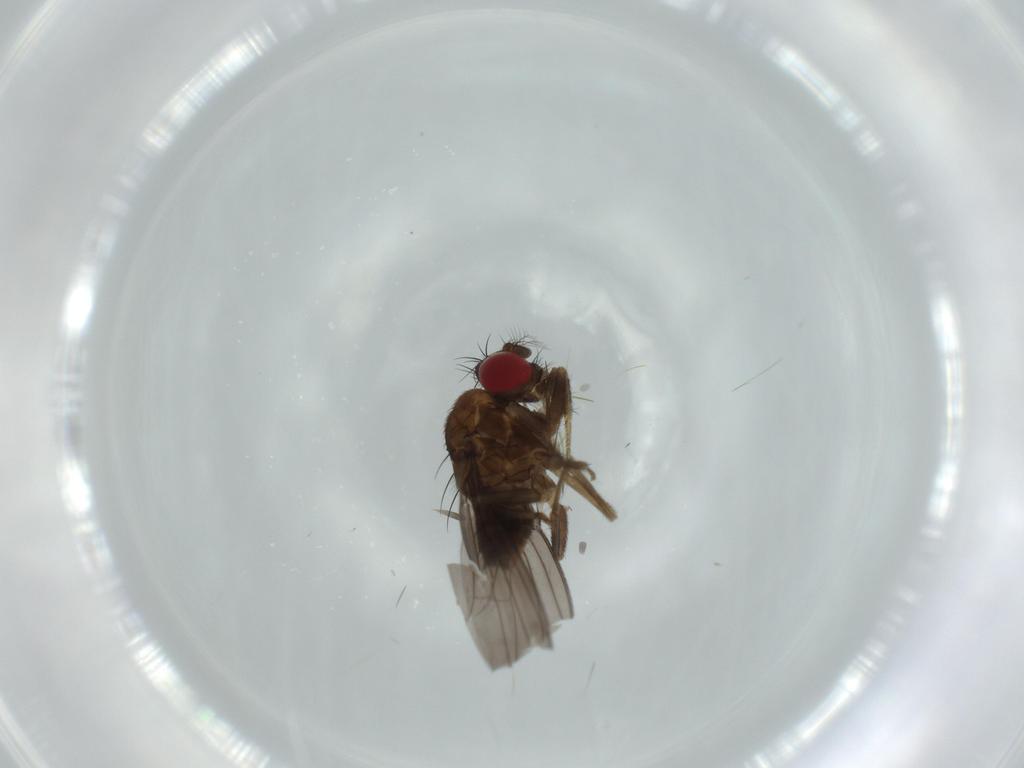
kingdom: Animalia
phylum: Arthropoda
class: Insecta
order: Diptera
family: Drosophilidae
